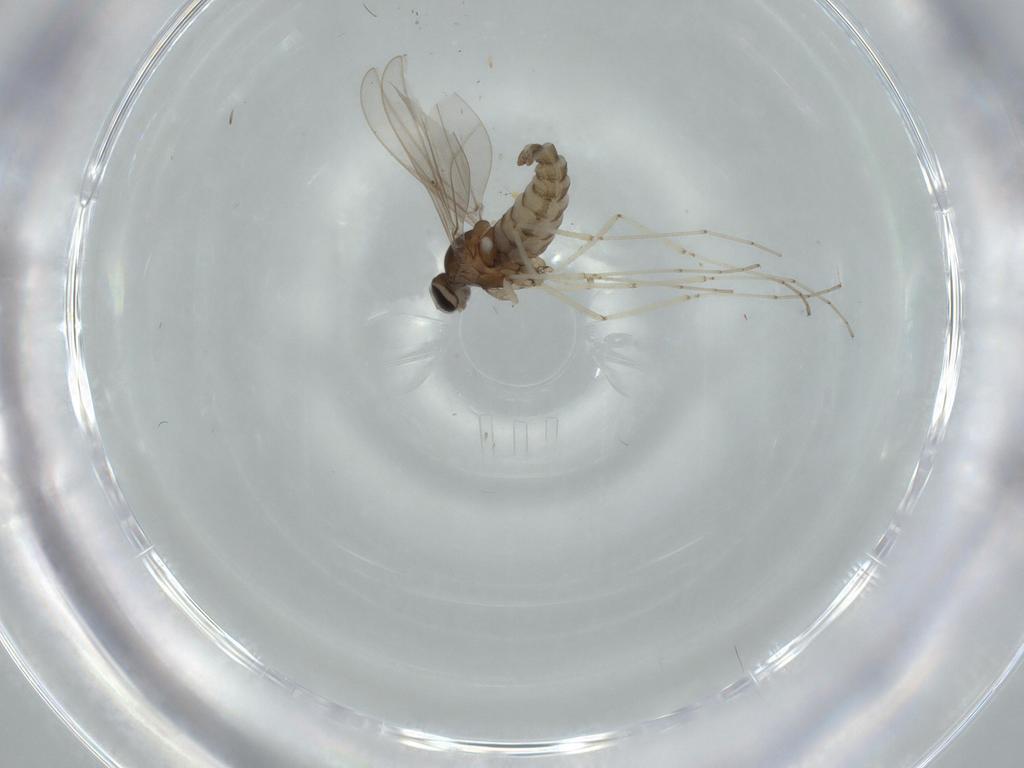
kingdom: Animalia
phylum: Arthropoda
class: Insecta
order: Diptera
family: Cecidomyiidae
